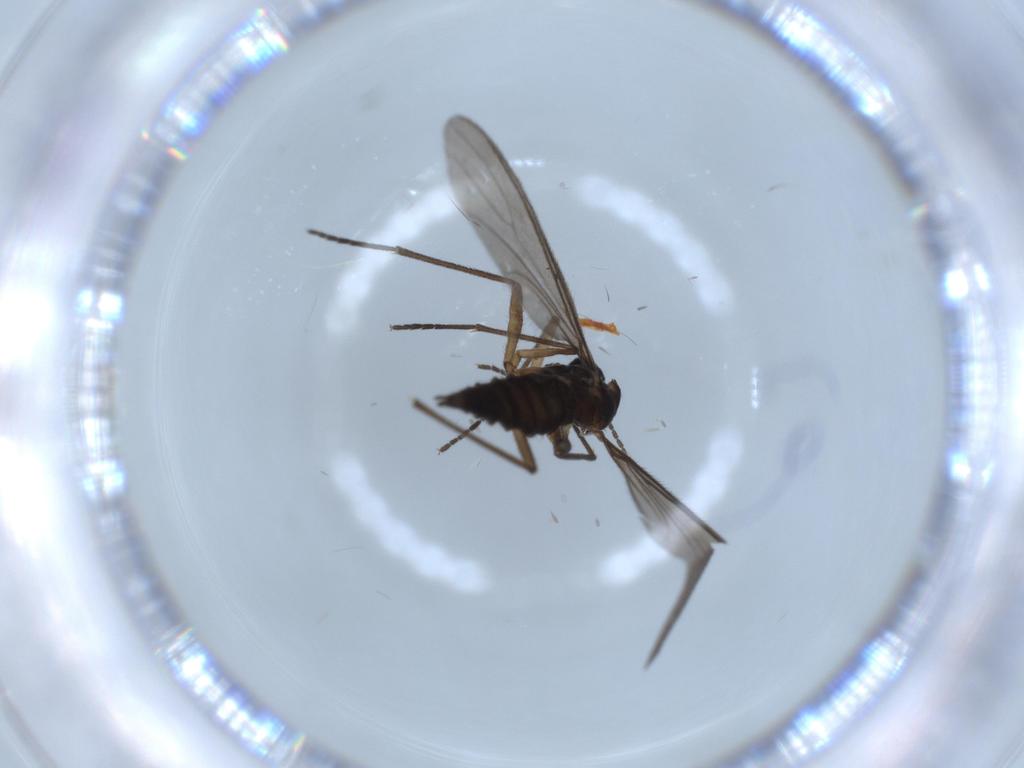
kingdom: Animalia
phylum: Arthropoda
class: Insecta
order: Diptera
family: Sciaridae
